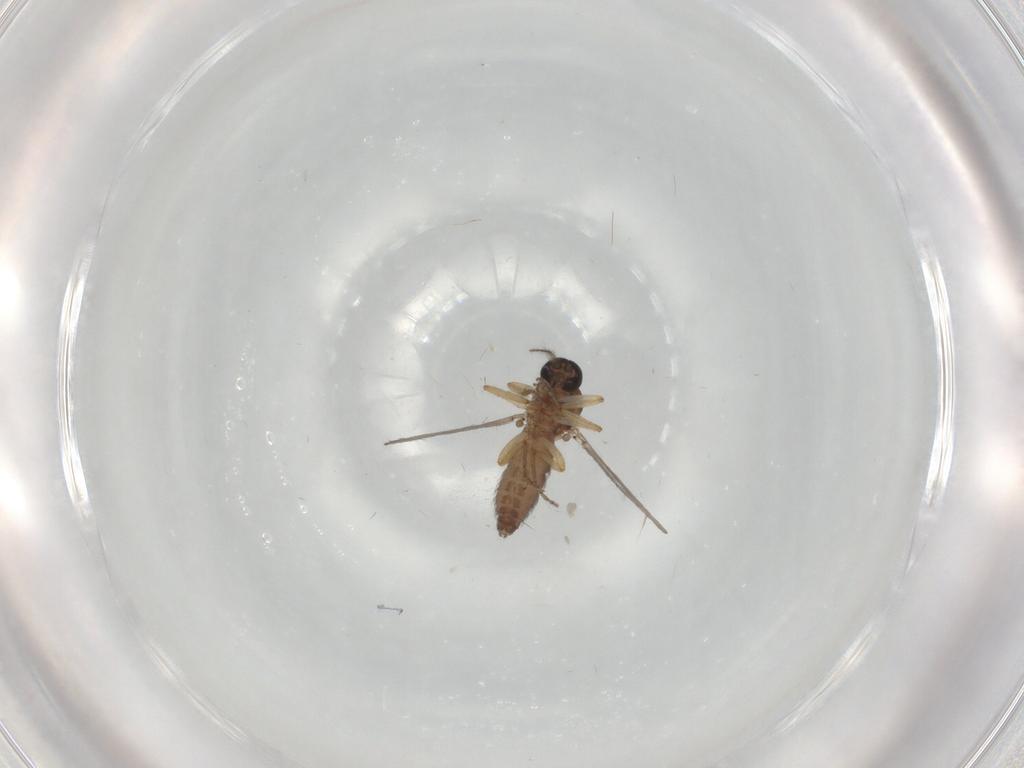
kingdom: Animalia
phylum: Arthropoda
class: Insecta
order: Diptera
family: Ceratopogonidae
